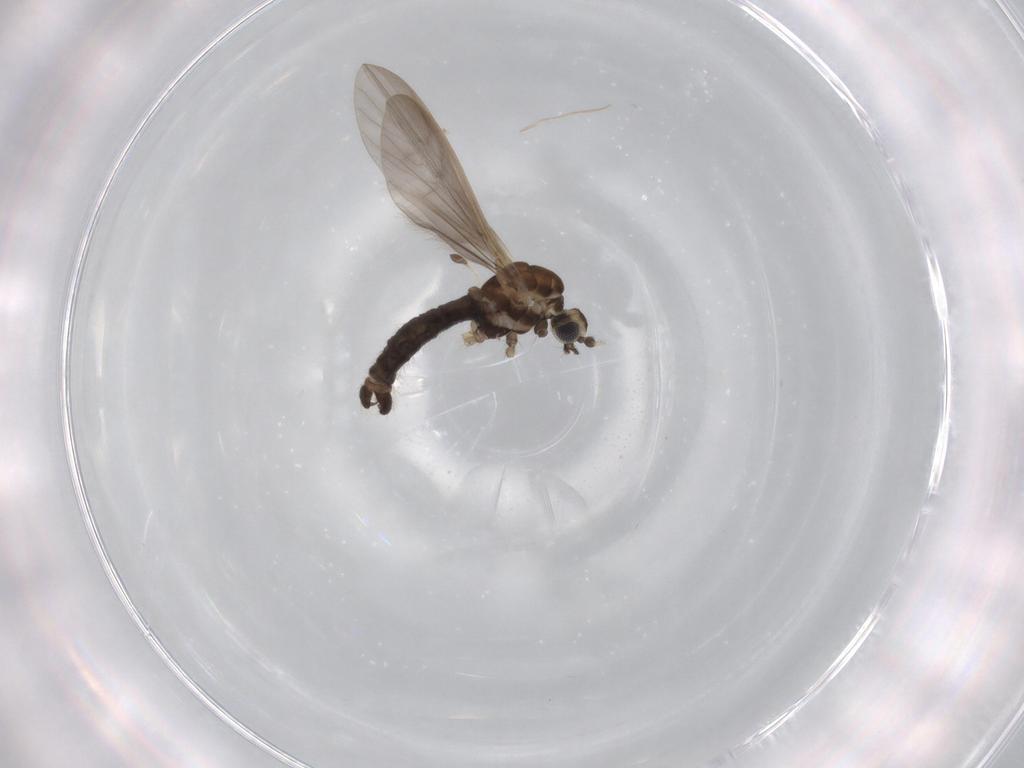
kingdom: Animalia
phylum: Arthropoda
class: Insecta
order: Diptera
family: Limoniidae
